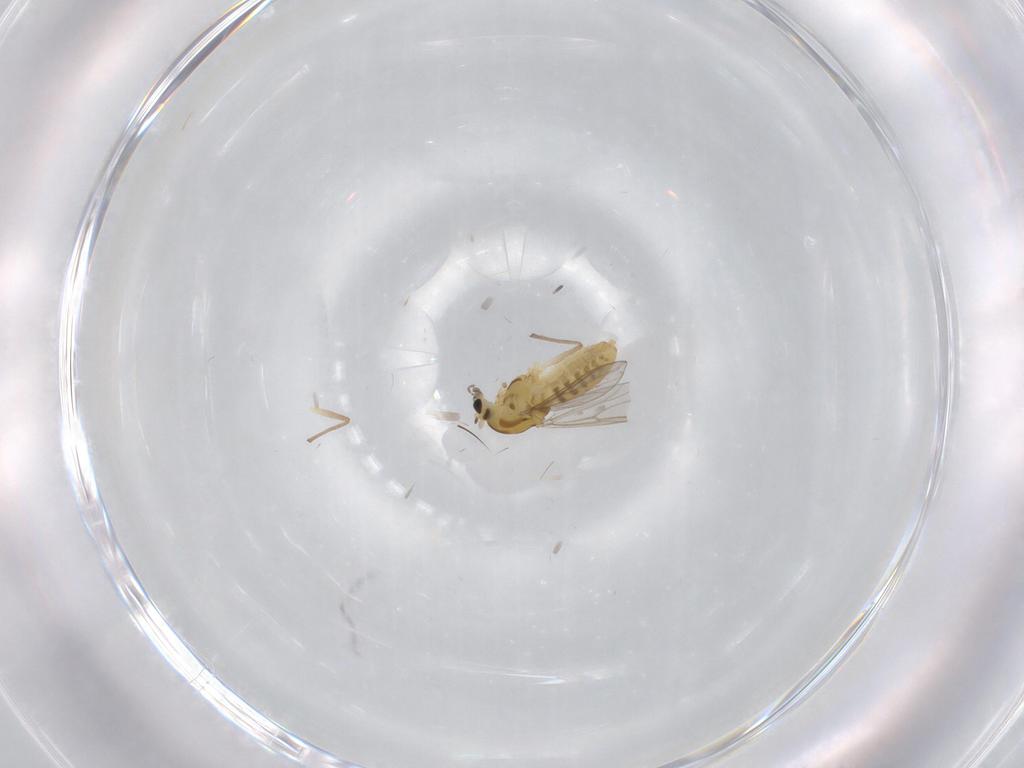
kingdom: Animalia
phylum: Arthropoda
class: Insecta
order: Diptera
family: Chironomidae
